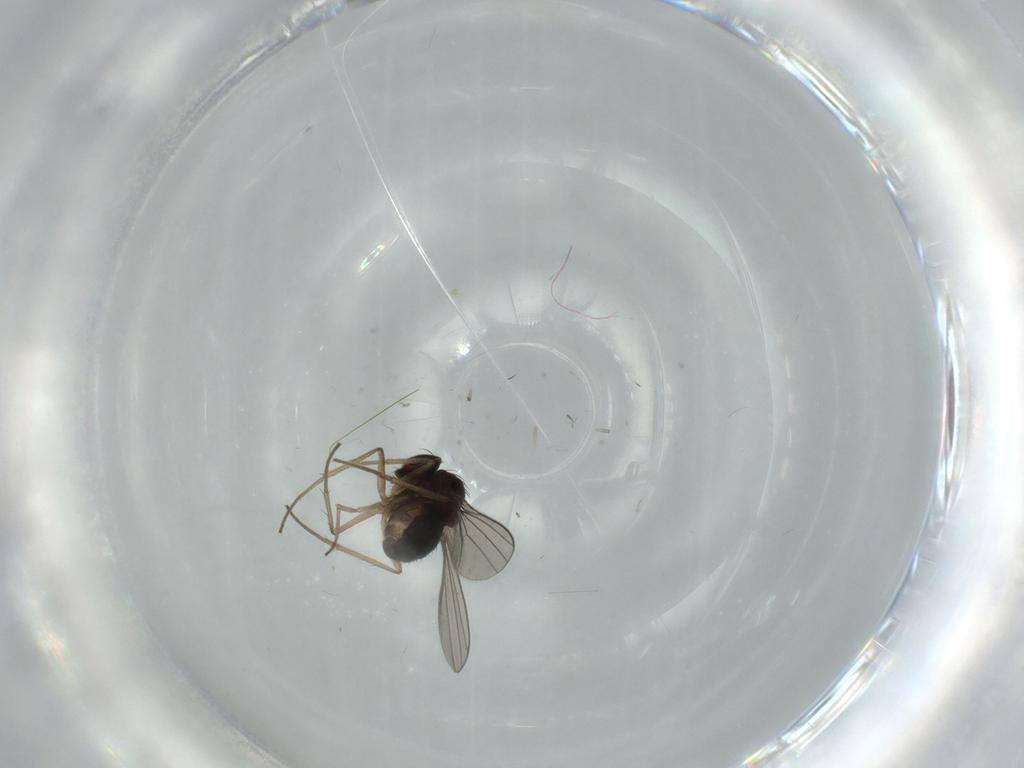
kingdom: Animalia
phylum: Arthropoda
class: Insecta
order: Diptera
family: Dolichopodidae
